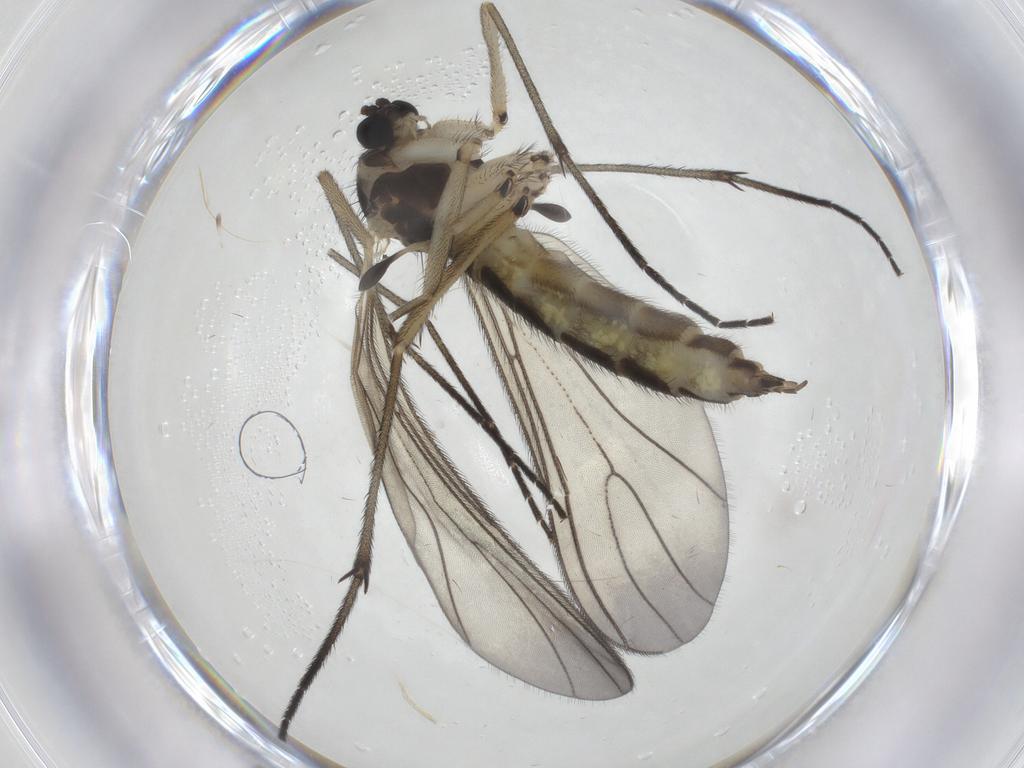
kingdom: Animalia
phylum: Arthropoda
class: Insecta
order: Diptera
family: Sciaridae
